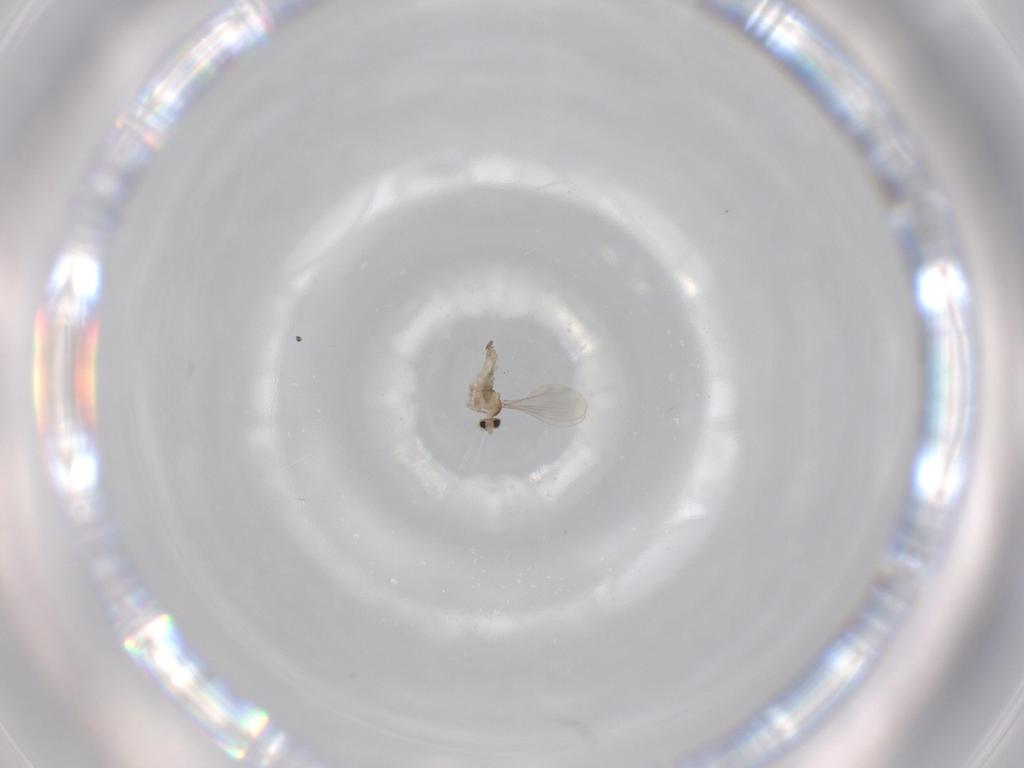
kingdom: Animalia
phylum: Arthropoda
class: Insecta
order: Diptera
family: Cecidomyiidae
